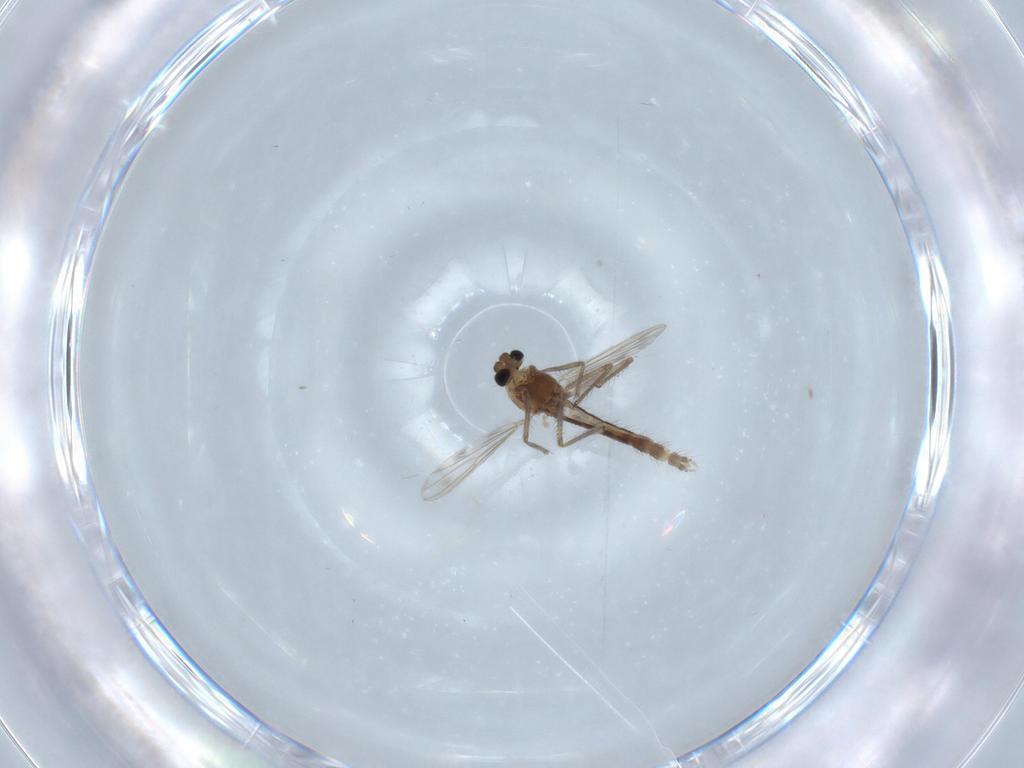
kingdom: Animalia
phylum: Arthropoda
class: Insecta
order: Diptera
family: Chironomidae
